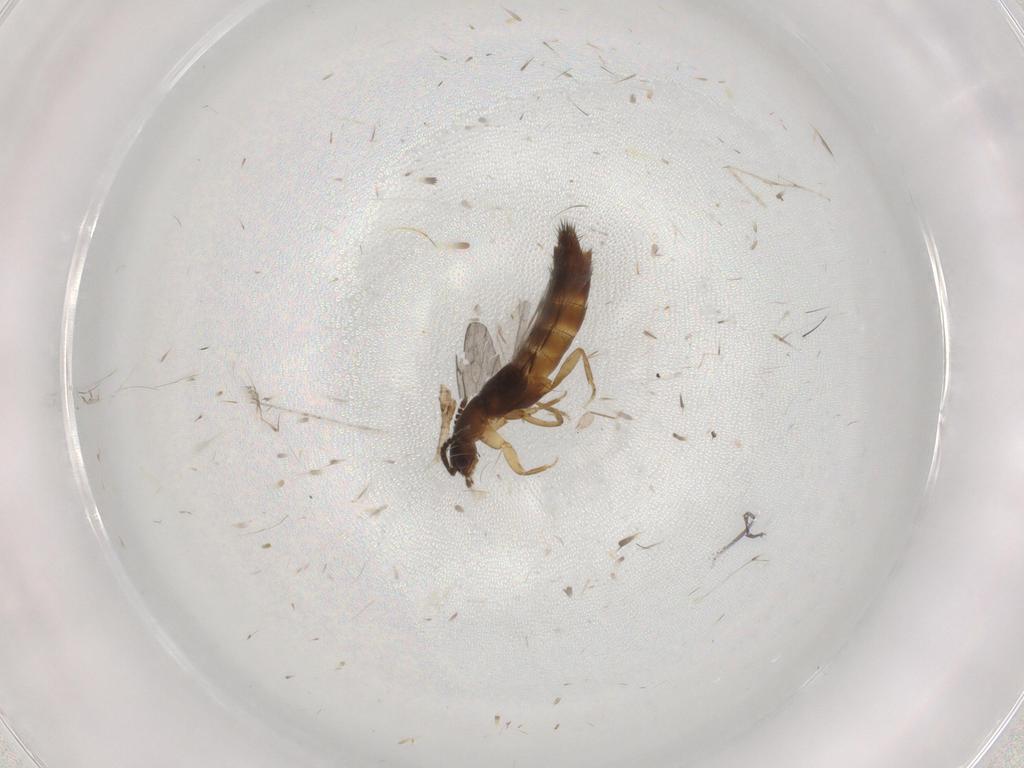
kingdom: Animalia
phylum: Arthropoda
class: Insecta
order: Coleoptera
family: Staphylinidae
